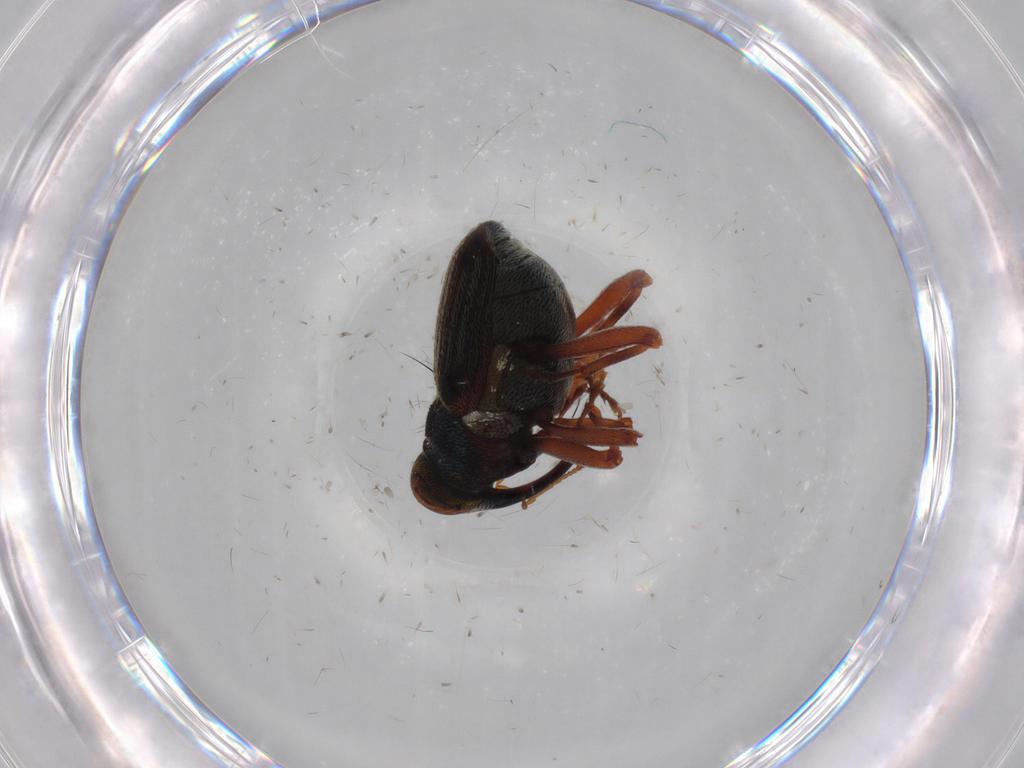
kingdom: Animalia
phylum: Arthropoda
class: Insecta
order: Coleoptera
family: Curculionidae
